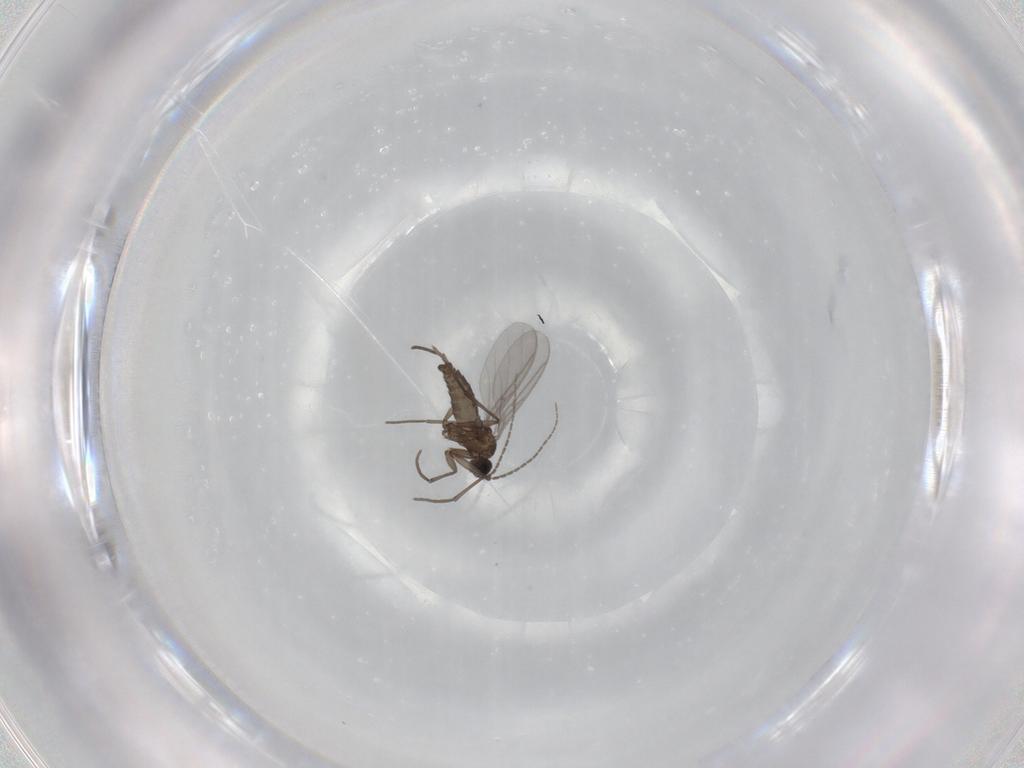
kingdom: Animalia
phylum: Arthropoda
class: Insecta
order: Diptera
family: Sciaridae
